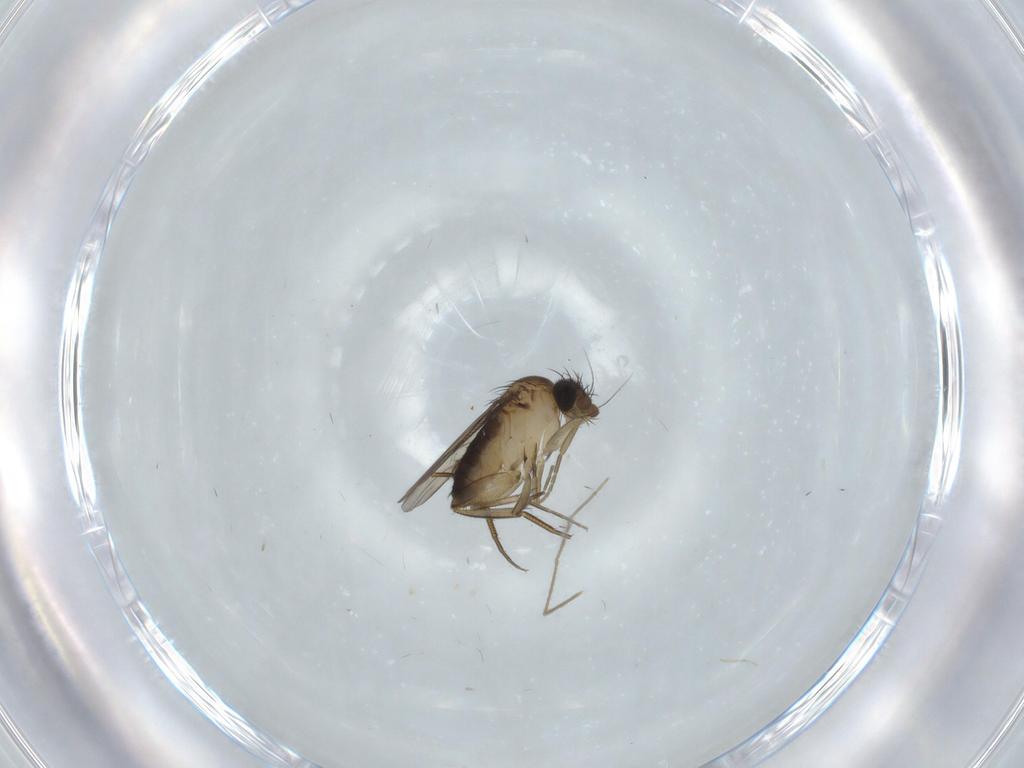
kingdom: Animalia
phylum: Arthropoda
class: Insecta
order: Diptera
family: Phoridae
